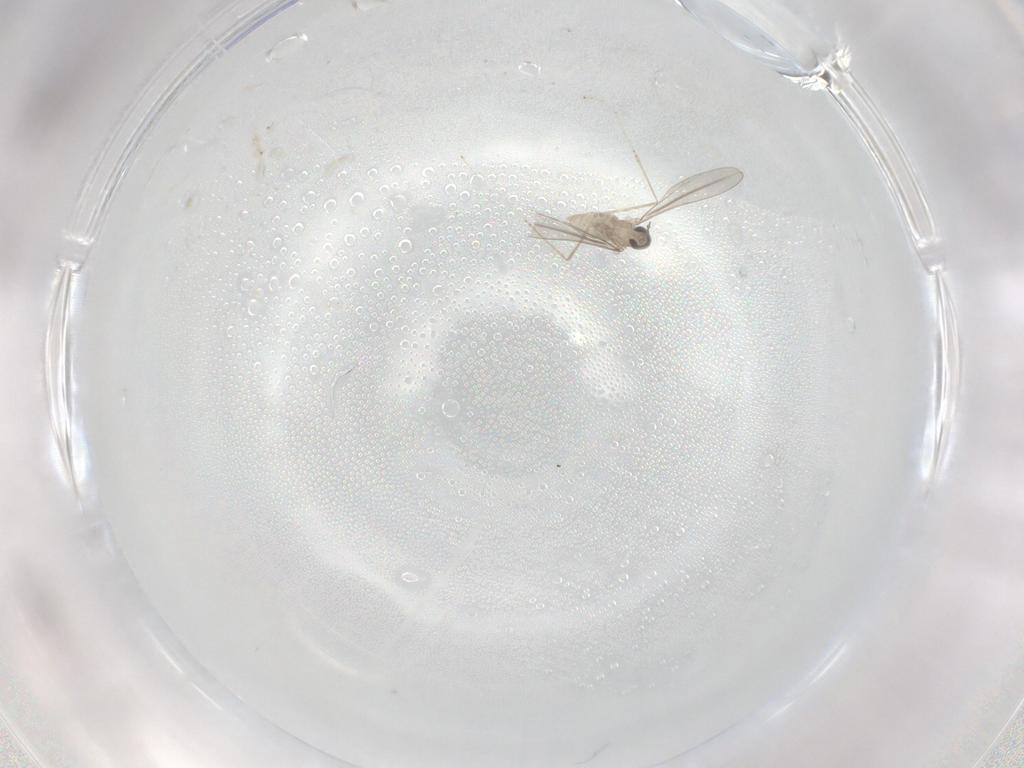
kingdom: Animalia
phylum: Arthropoda
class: Insecta
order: Diptera
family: Cecidomyiidae
